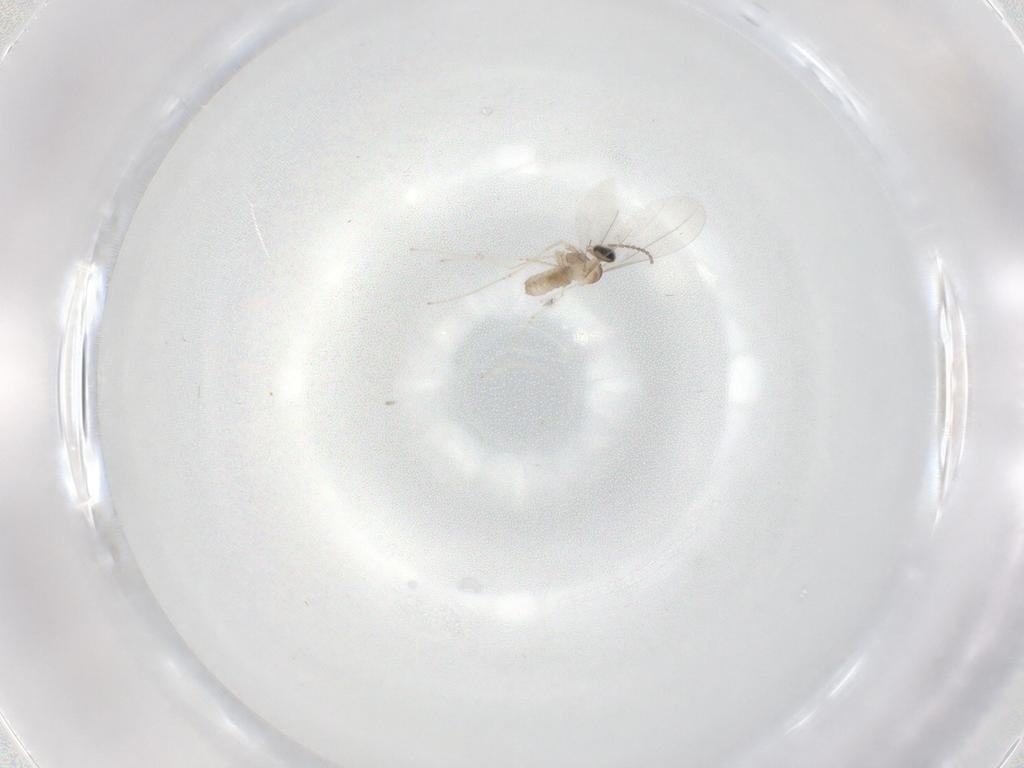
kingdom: Animalia
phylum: Arthropoda
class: Insecta
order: Diptera
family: Cecidomyiidae
